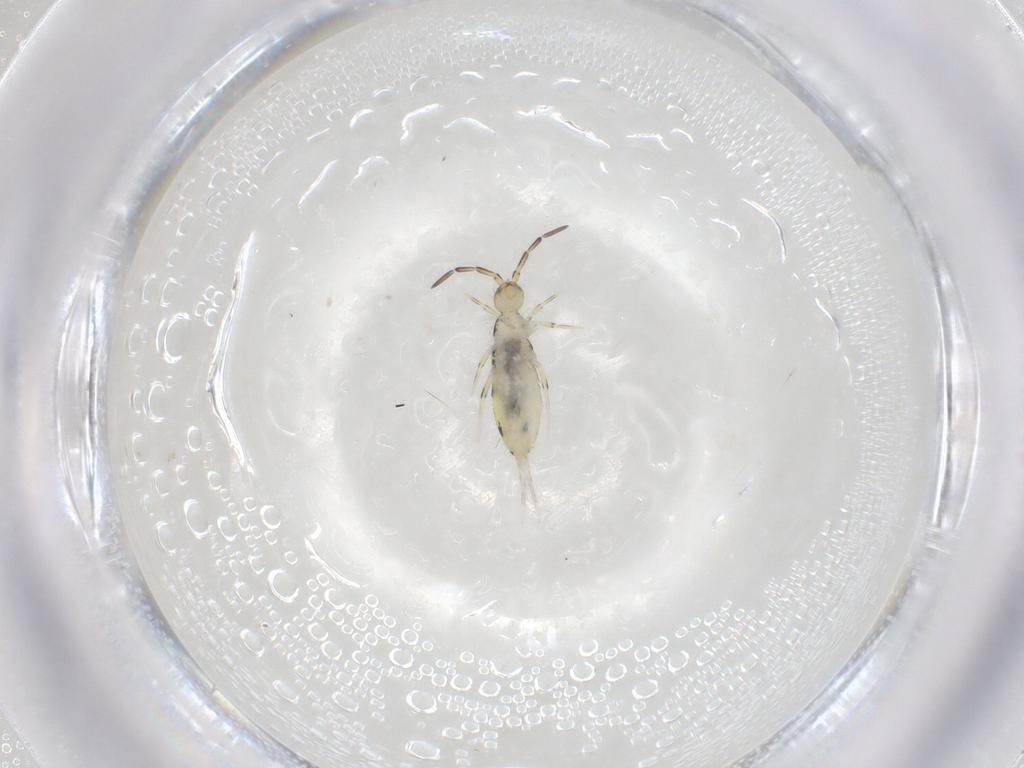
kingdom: Animalia
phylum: Arthropoda
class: Collembola
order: Entomobryomorpha
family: Entomobryidae
